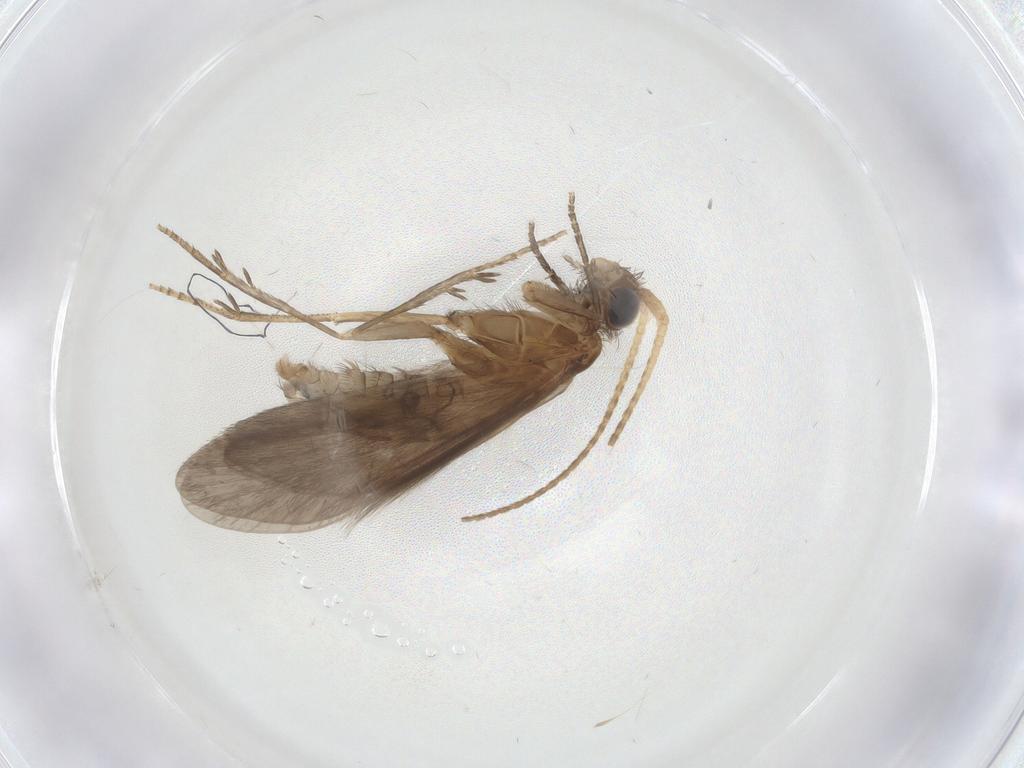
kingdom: Animalia
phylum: Arthropoda
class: Insecta
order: Trichoptera
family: Helicopsychidae
